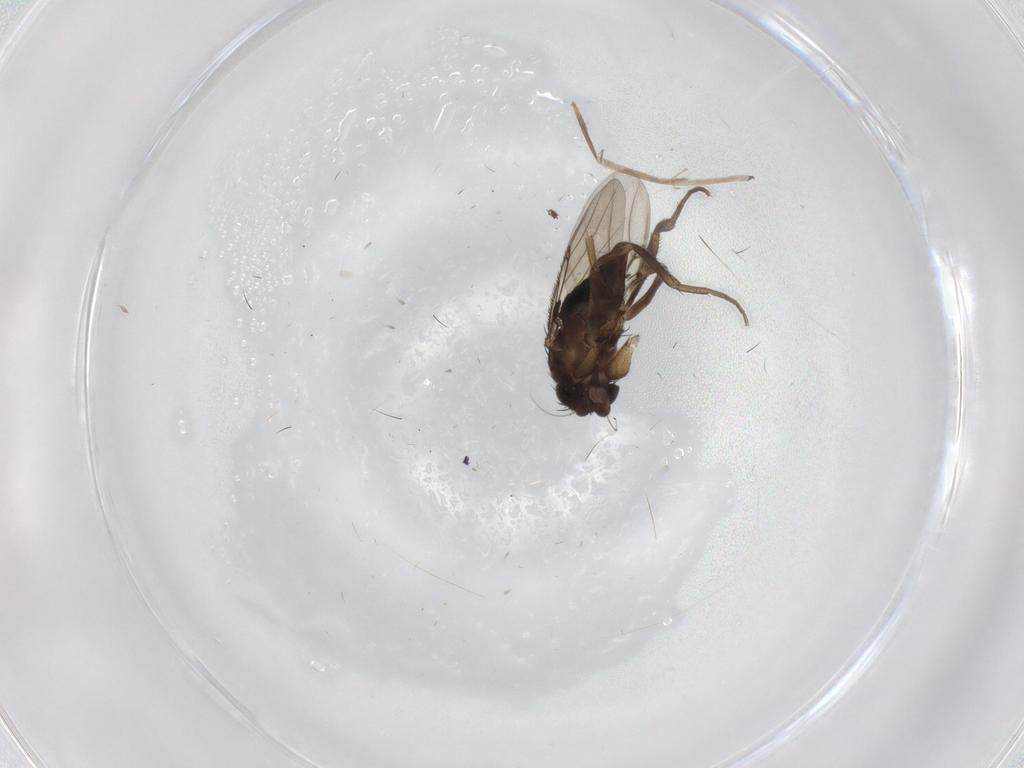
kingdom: Animalia
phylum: Arthropoda
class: Insecta
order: Diptera
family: Phoridae
